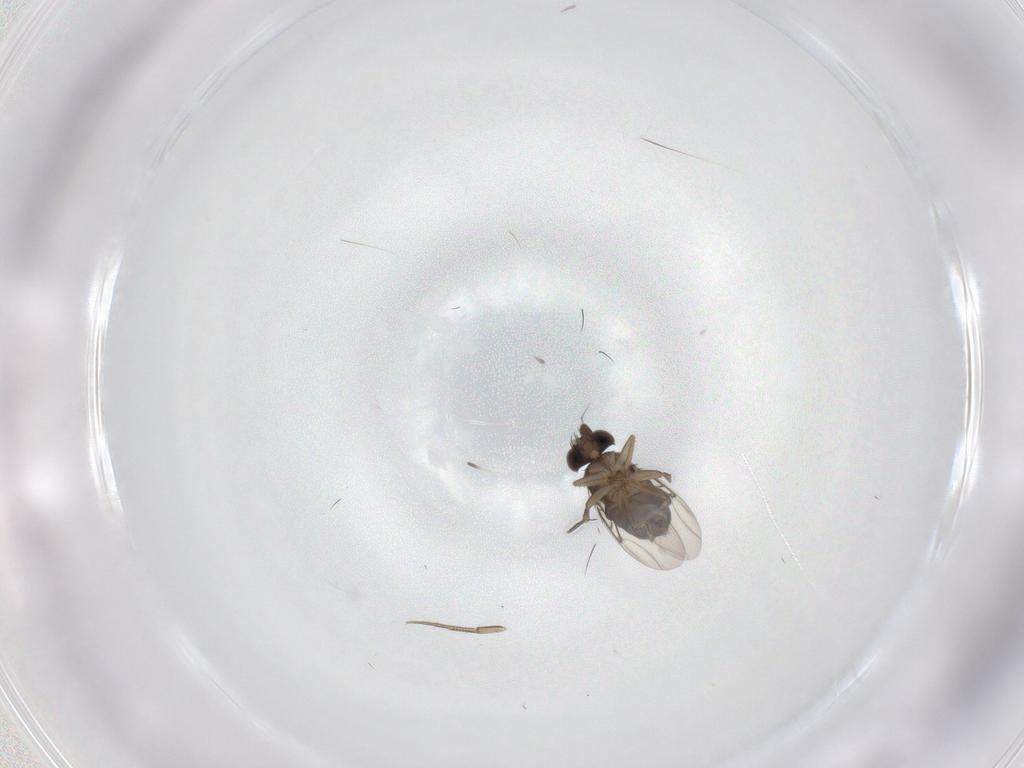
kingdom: Animalia
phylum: Arthropoda
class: Insecta
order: Diptera
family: Phoridae
